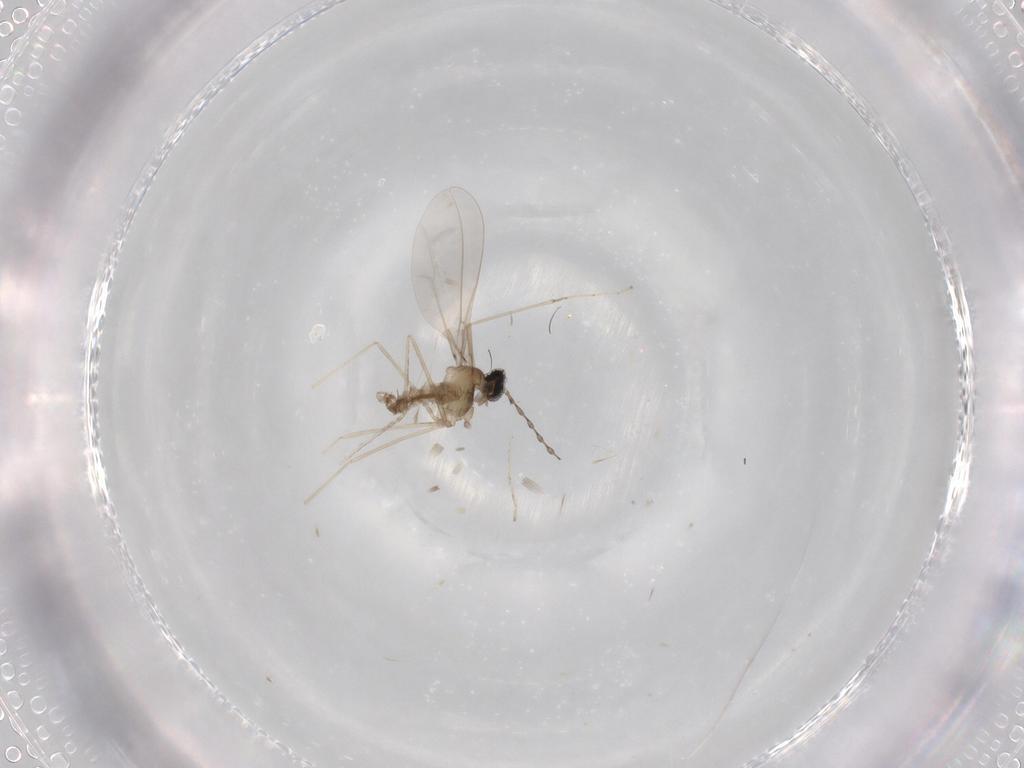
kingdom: Animalia
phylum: Arthropoda
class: Insecta
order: Diptera
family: Cecidomyiidae
